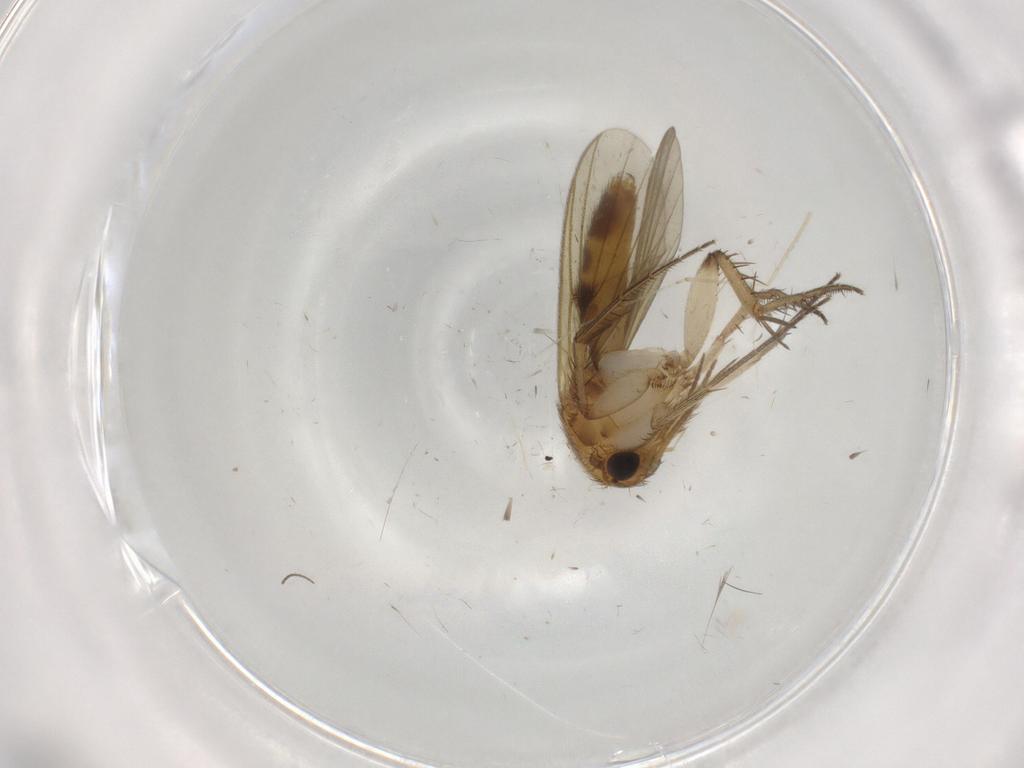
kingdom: Animalia
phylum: Arthropoda
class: Insecta
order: Diptera
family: Cecidomyiidae
